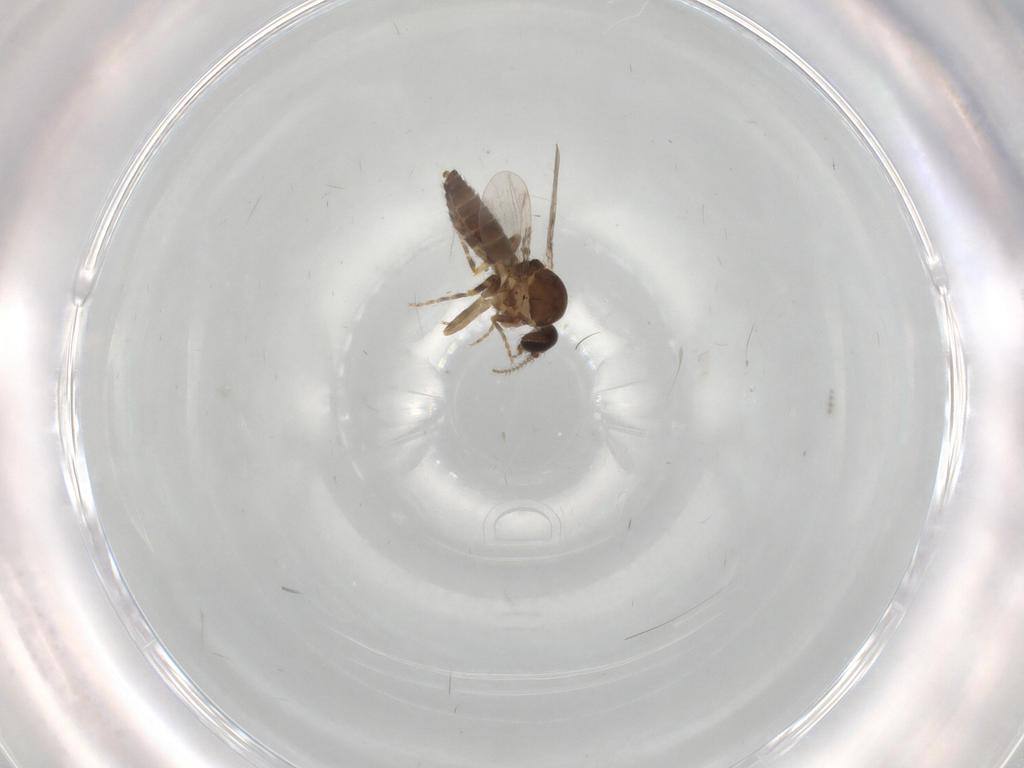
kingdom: Animalia
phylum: Arthropoda
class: Insecta
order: Diptera
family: Ceratopogonidae
